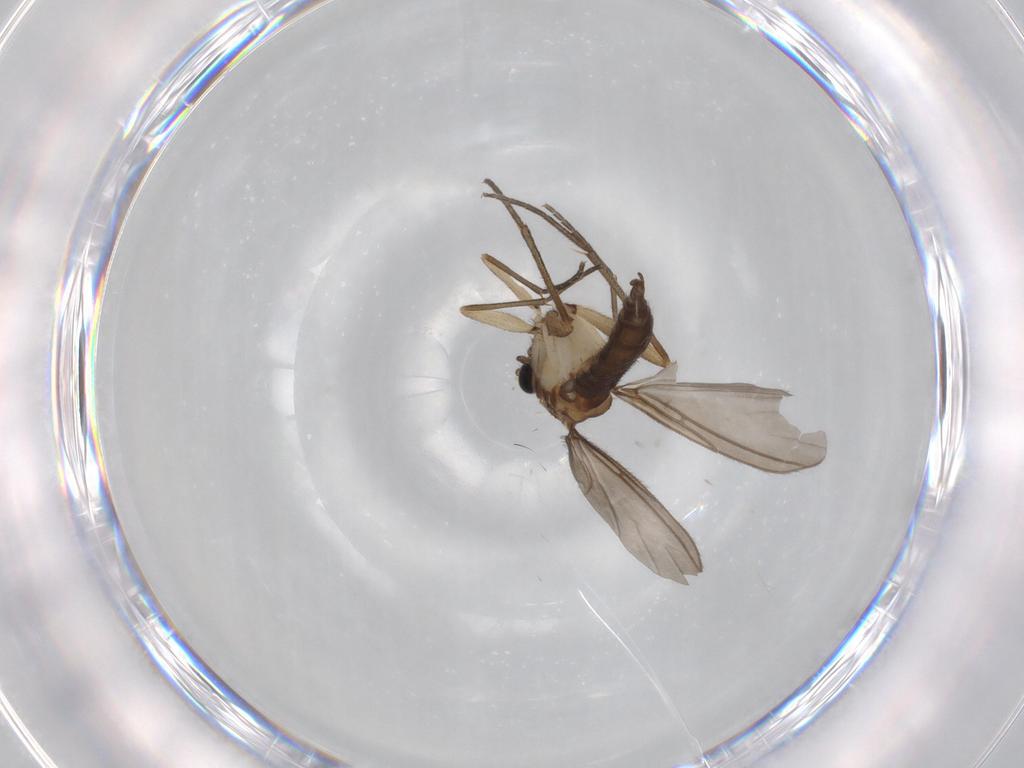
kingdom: Animalia
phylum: Arthropoda
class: Insecta
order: Diptera
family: Sciaridae
